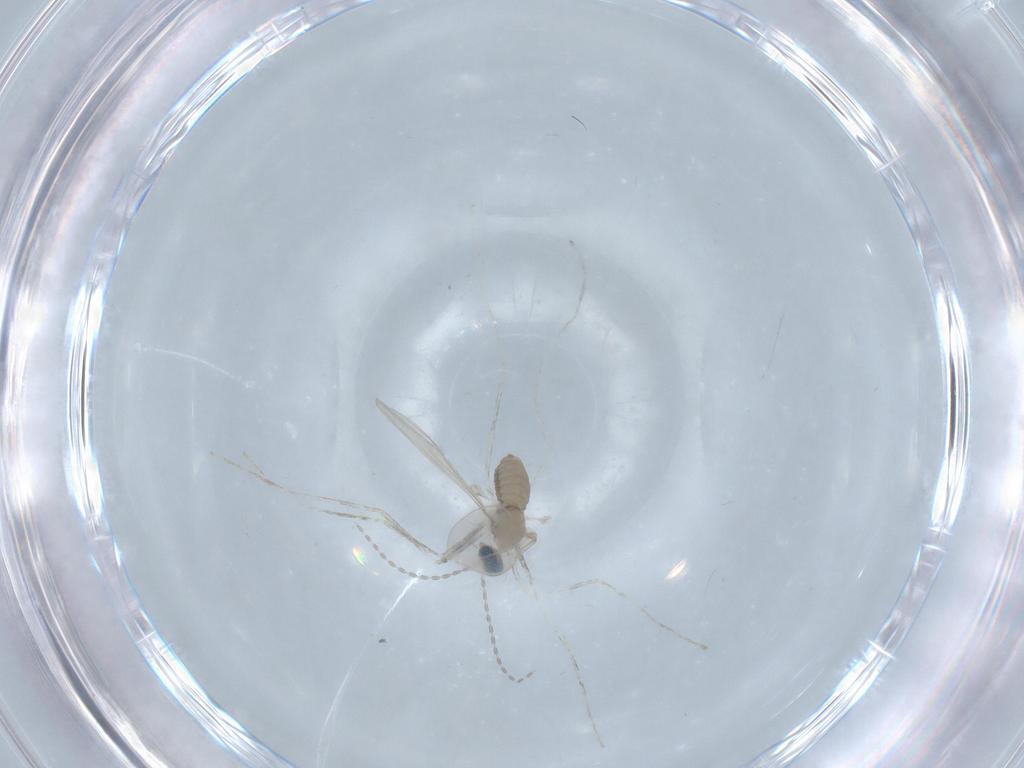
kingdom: Animalia
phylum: Arthropoda
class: Insecta
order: Diptera
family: Cecidomyiidae
